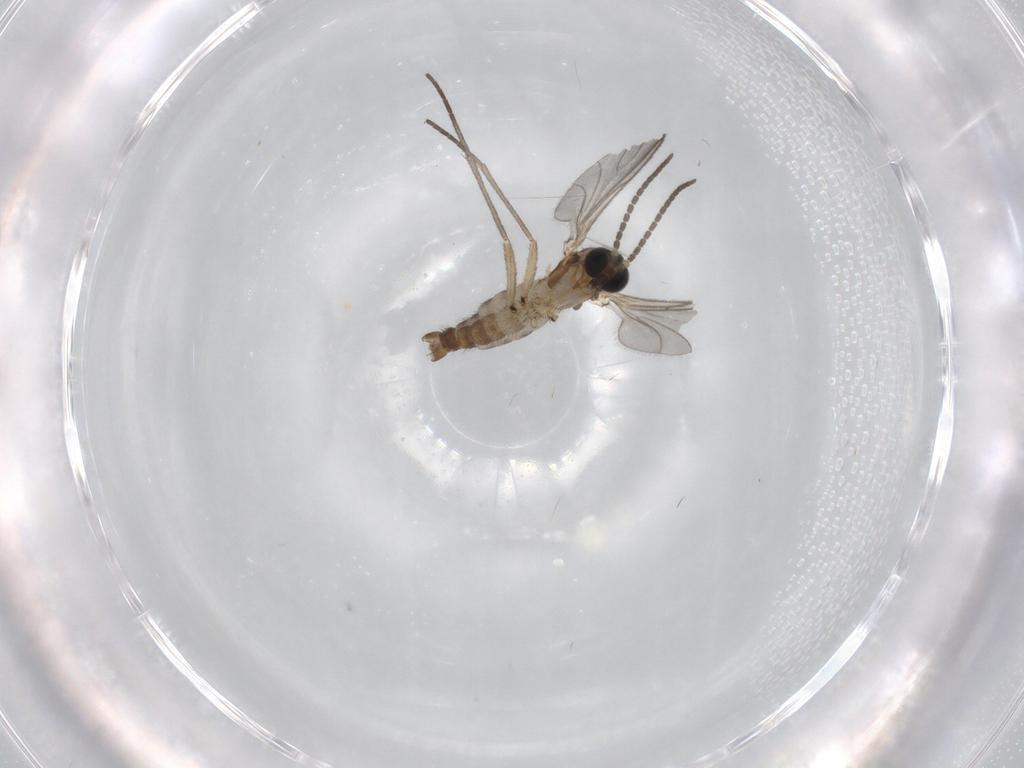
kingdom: Animalia
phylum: Arthropoda
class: Insecta
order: Diptera
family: Sciaridae
